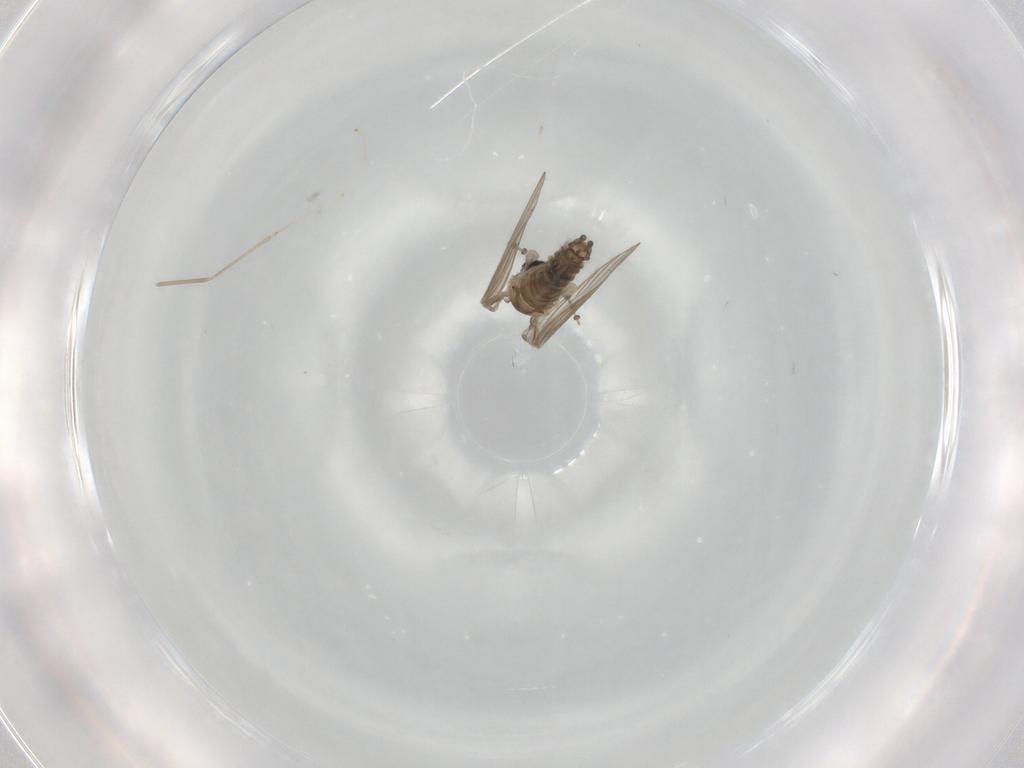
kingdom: Animalia
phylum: Arthropoda
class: Insecta
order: Diptera
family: Psychodidae
